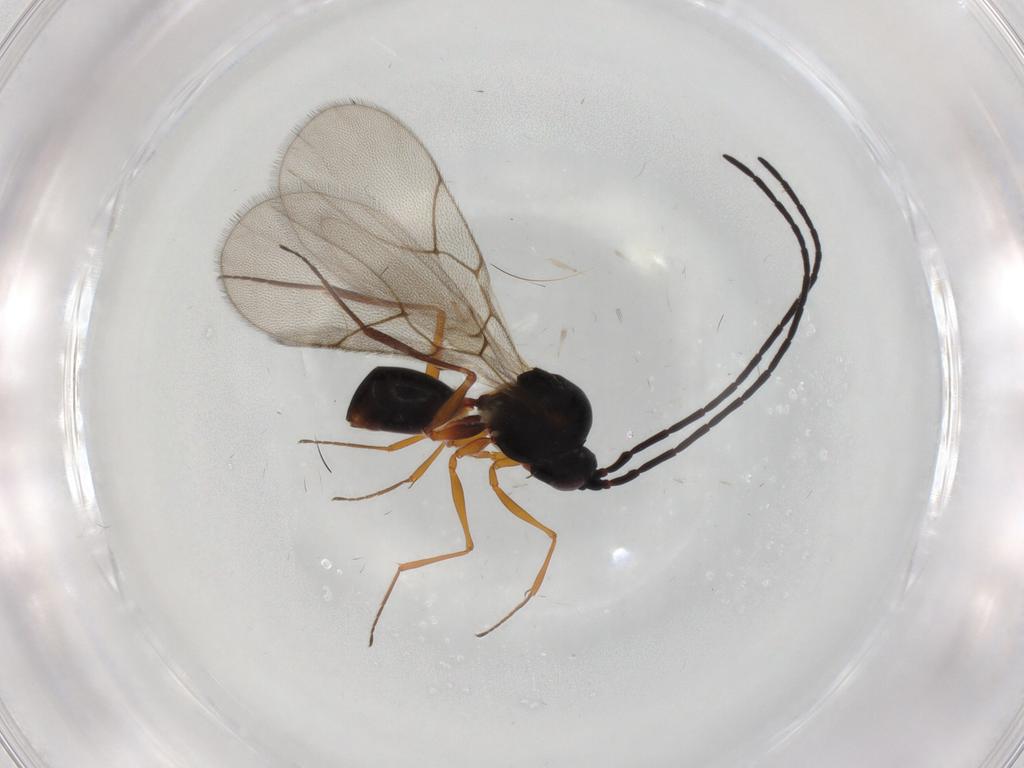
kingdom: Animalia
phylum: Arthropoda
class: Insecta
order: Hymenoptera
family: Figitidae
